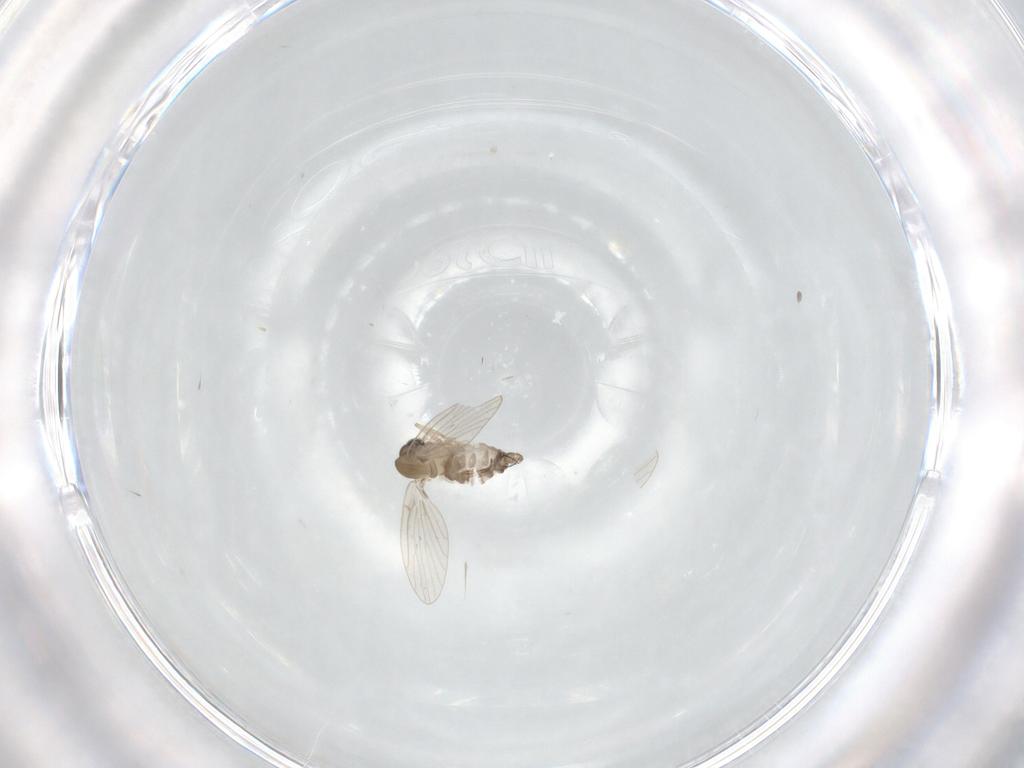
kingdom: Animalia
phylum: Arthropoda
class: Insecta
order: Diptera
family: Psychodidae
